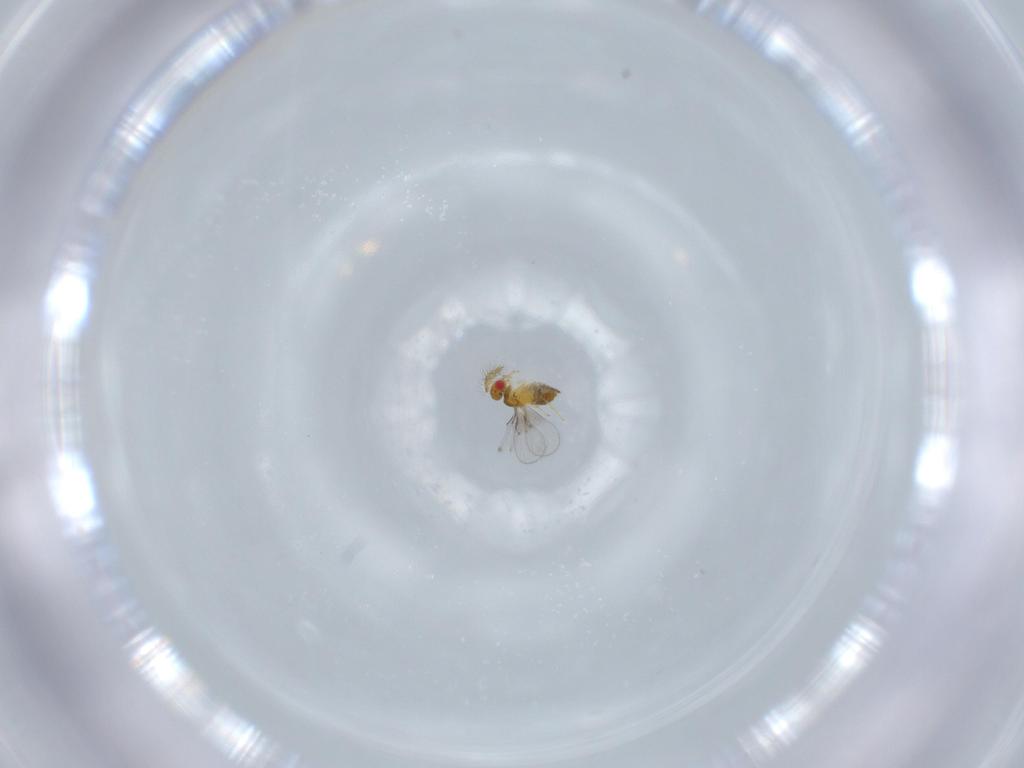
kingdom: Animalia
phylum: Arthropoda
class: Insecta
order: Hymenoptera
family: Trichogrammatidae
